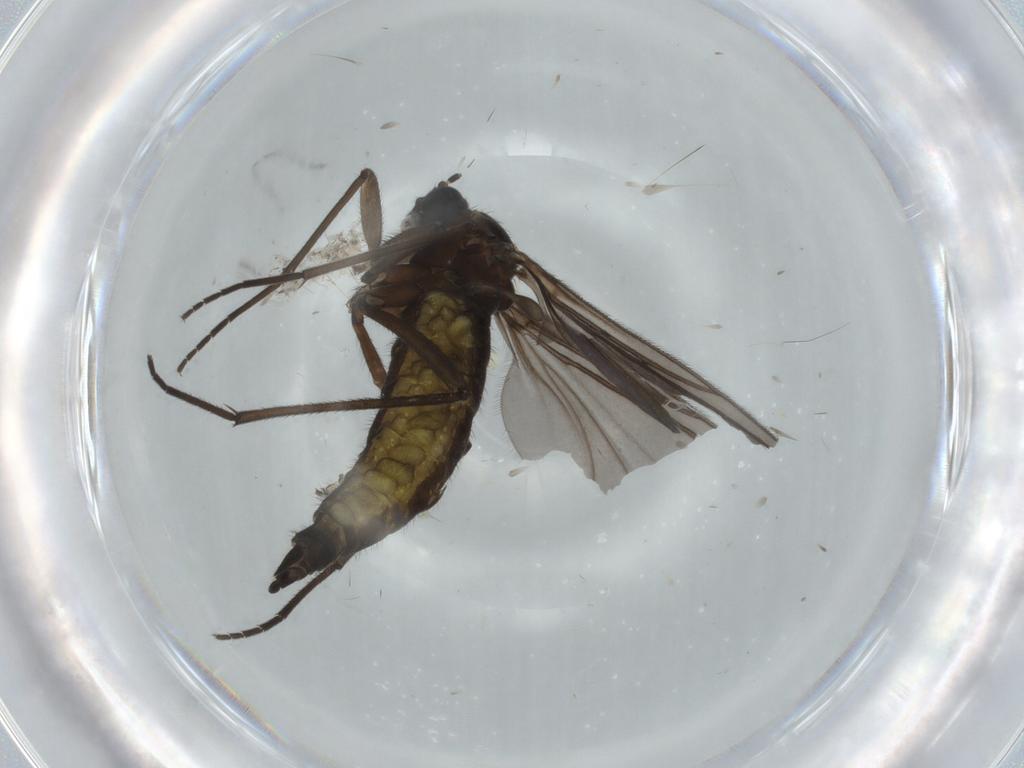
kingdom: Animalia
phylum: Arthropoda
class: Insecta
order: Diptera
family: Sciaridae
